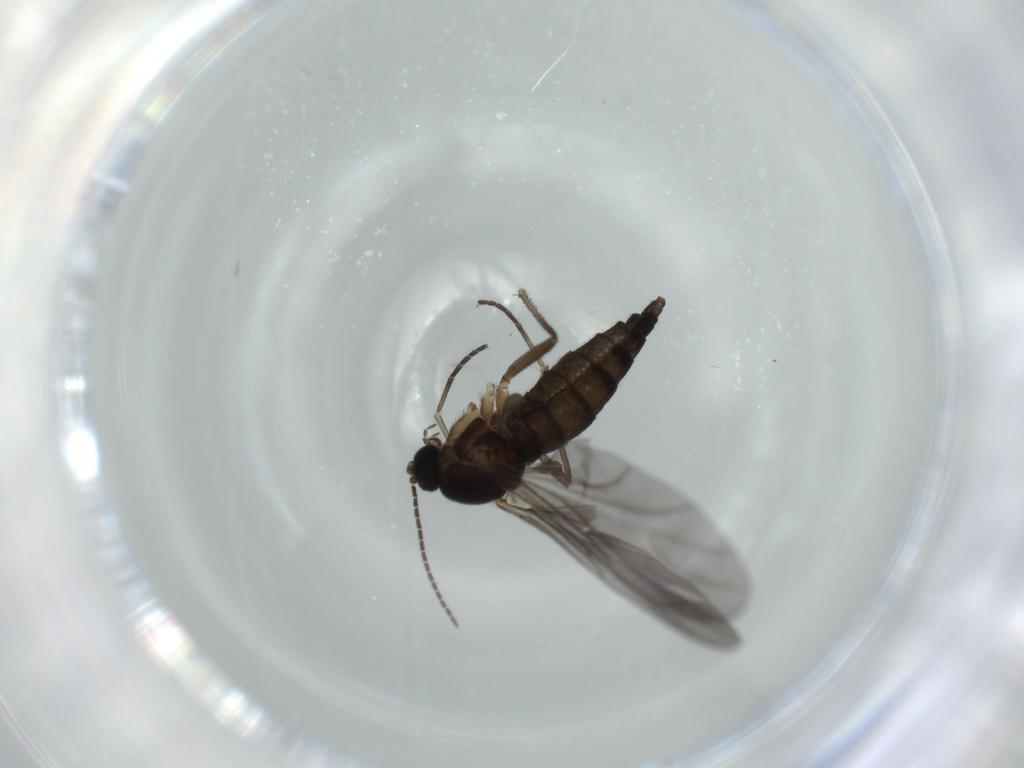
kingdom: Animalia
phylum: Arthropoda
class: Insecta
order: Diptera
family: Sciaridae
